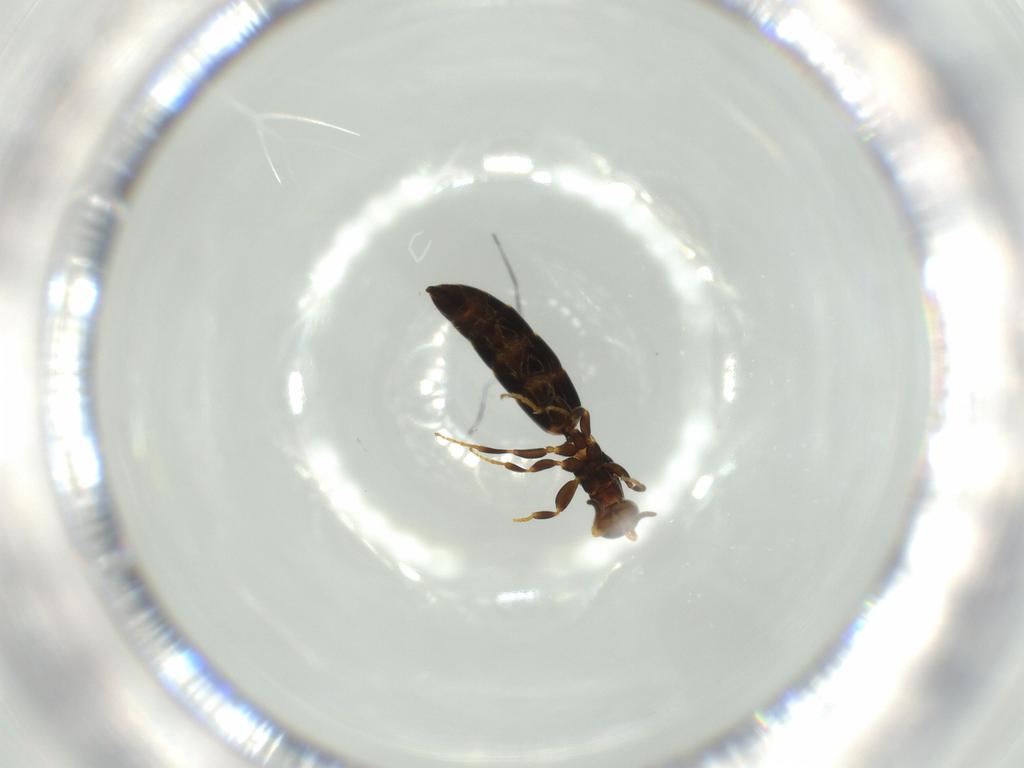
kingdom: Animalia
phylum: Arthropoda
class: Insecta
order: Hymenoptera
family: Bethylidae
